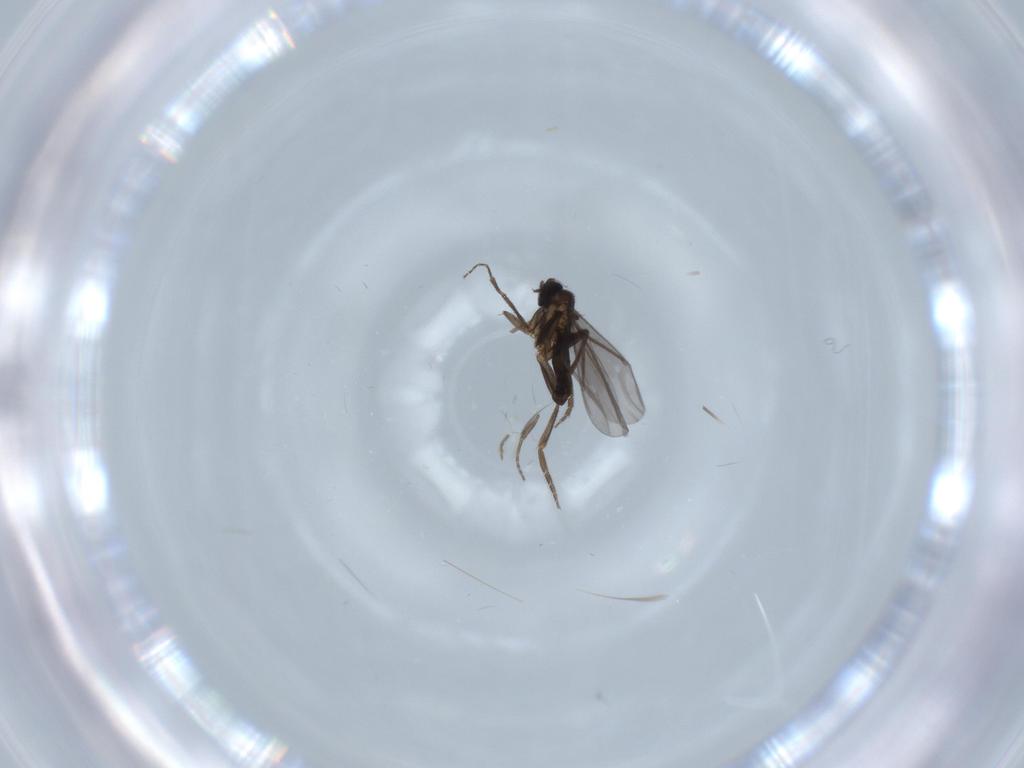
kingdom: Animalia
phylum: Arthropoda
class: Insecta
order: Diptera
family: Phoridae
